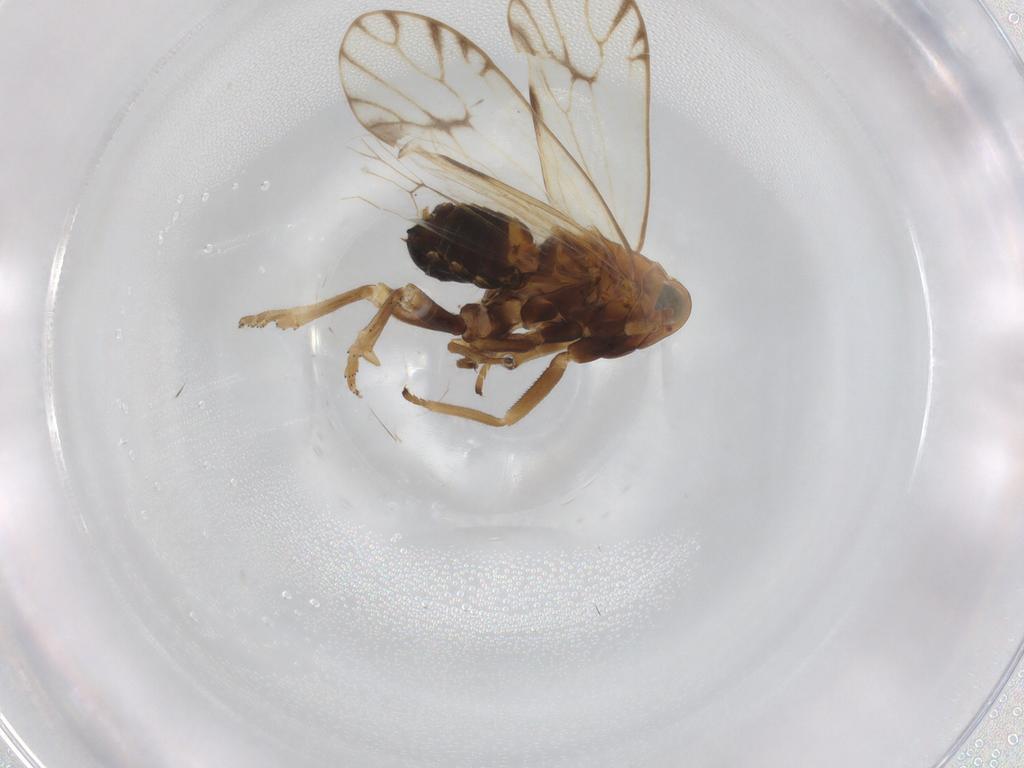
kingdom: Animalia
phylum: Arthropoda
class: Insecta
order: Hemiptera
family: Delphacidae
